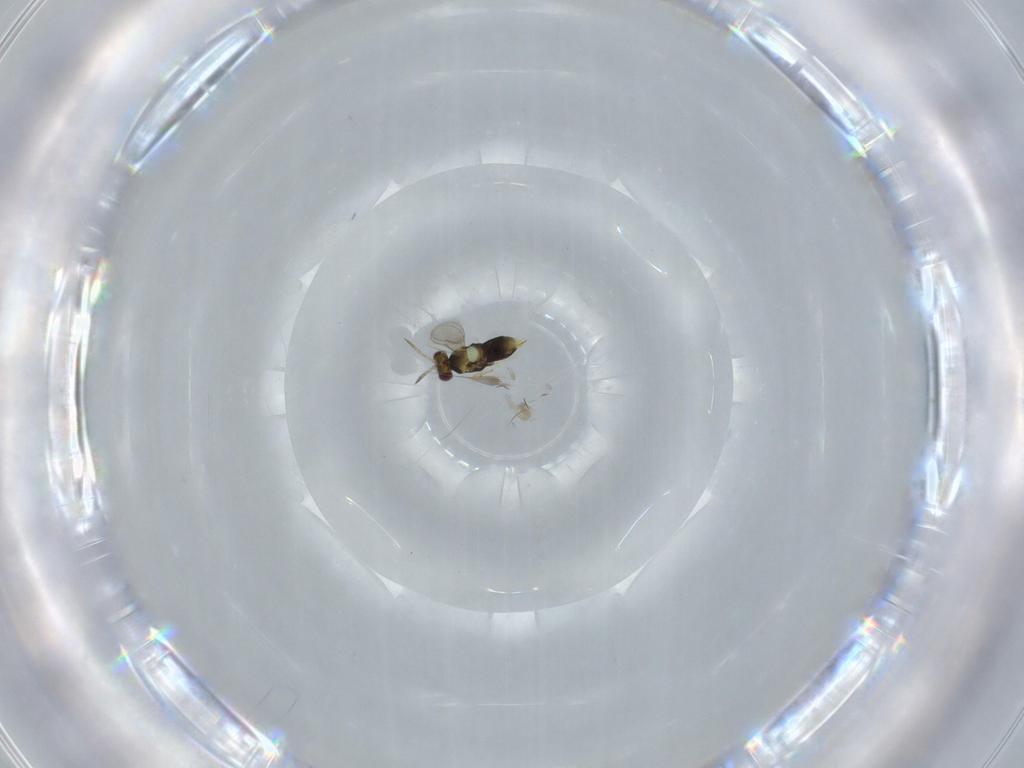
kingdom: Animalia
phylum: Arthropoda
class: Insecta
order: Hymenoptera
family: Aphelinidae
